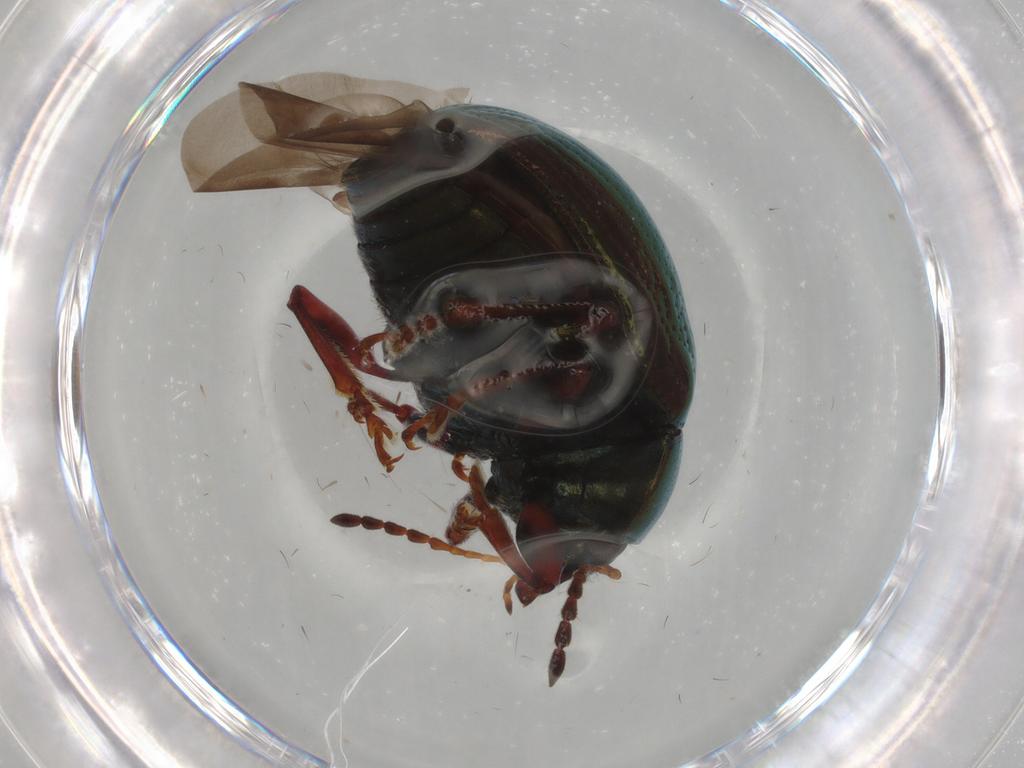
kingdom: Animalia
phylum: Arthropoda
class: Insecta
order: Coleoptera
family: Chrysomelidae
